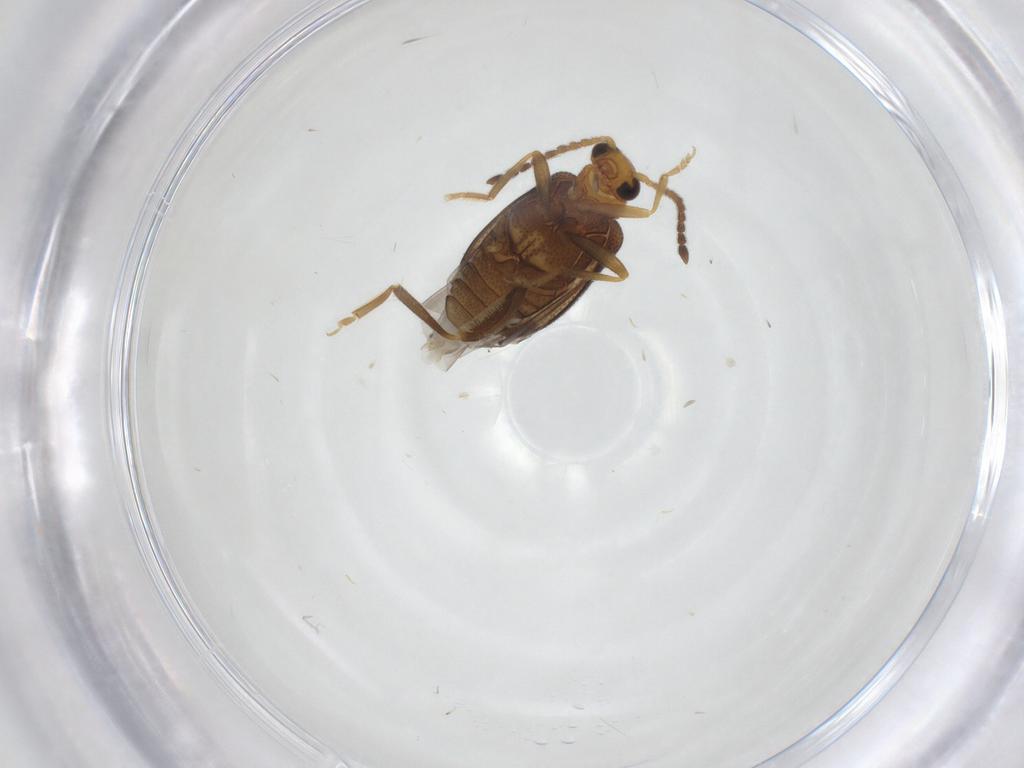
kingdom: Animalia
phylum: Arthropoda
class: Insecta
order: Coleoptera
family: Aderidae
